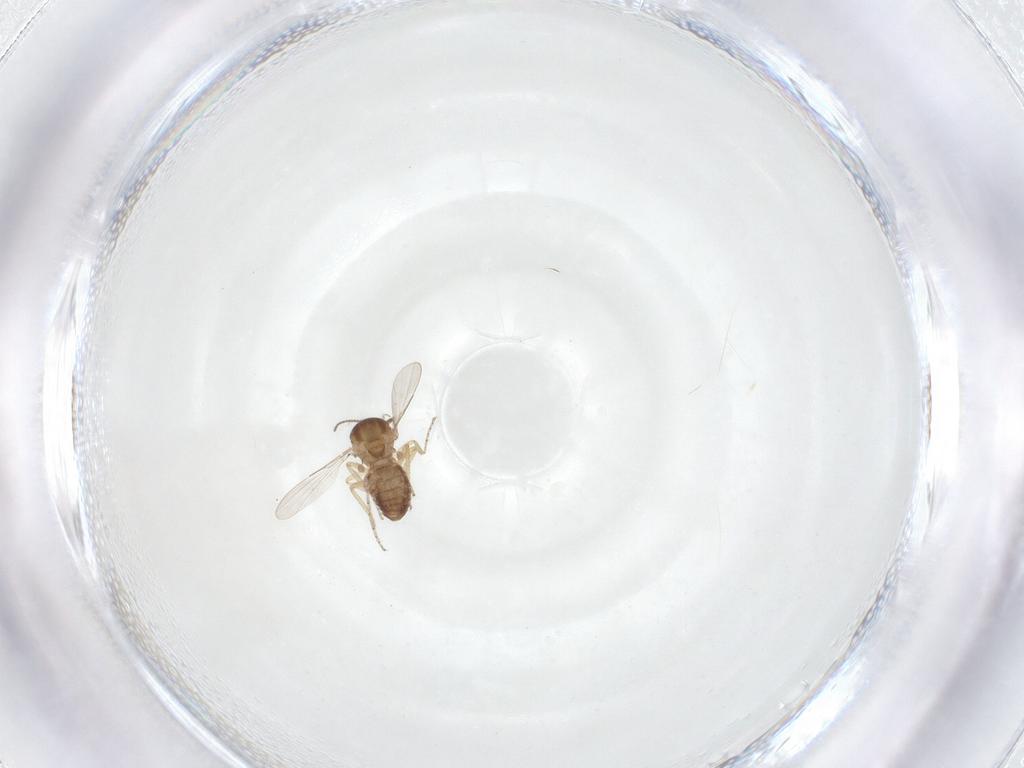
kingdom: Animalia
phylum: Arthropoda
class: Insecta
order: Diptera
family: Ceratopogonidae
